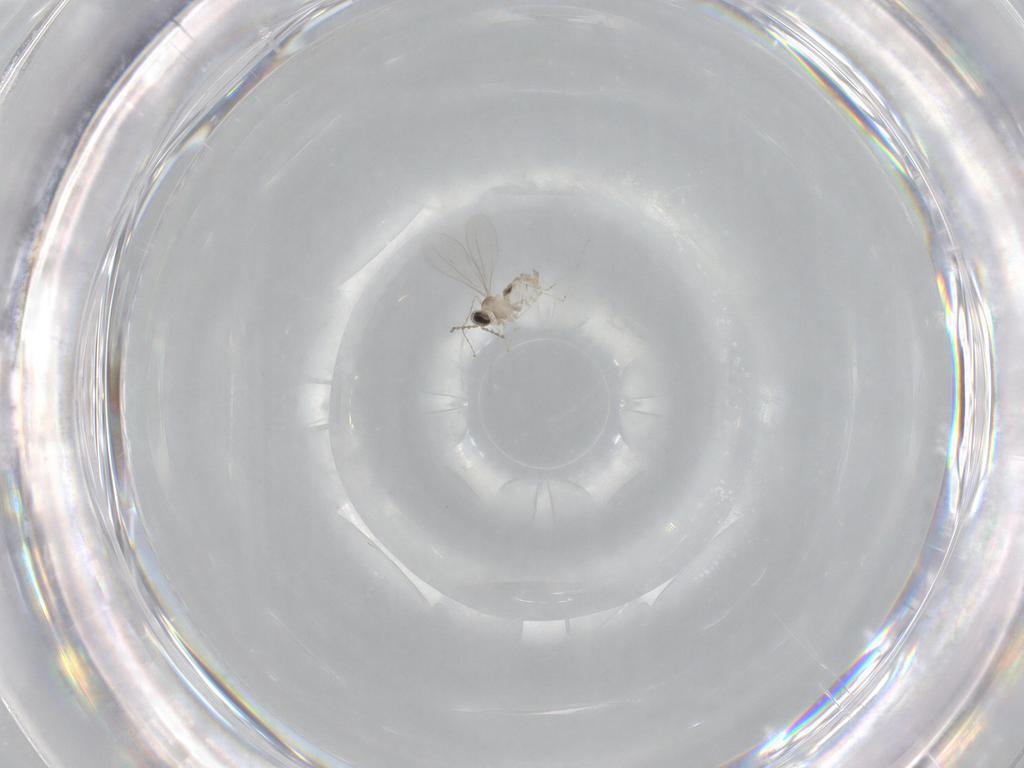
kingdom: Animalia
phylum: Arthropoda
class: Insecta
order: Diptera
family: Cecidomyiidae
